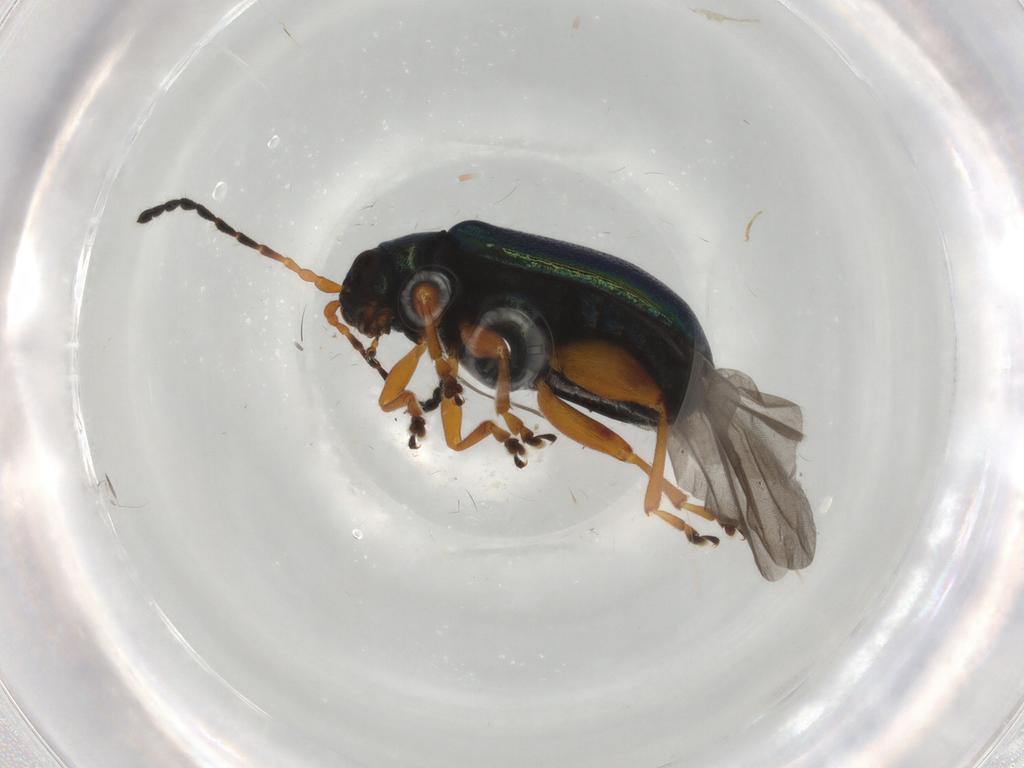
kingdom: Animalia
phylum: Arthropoda
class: Insecta
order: Coleoptera
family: Chrysomelidae
